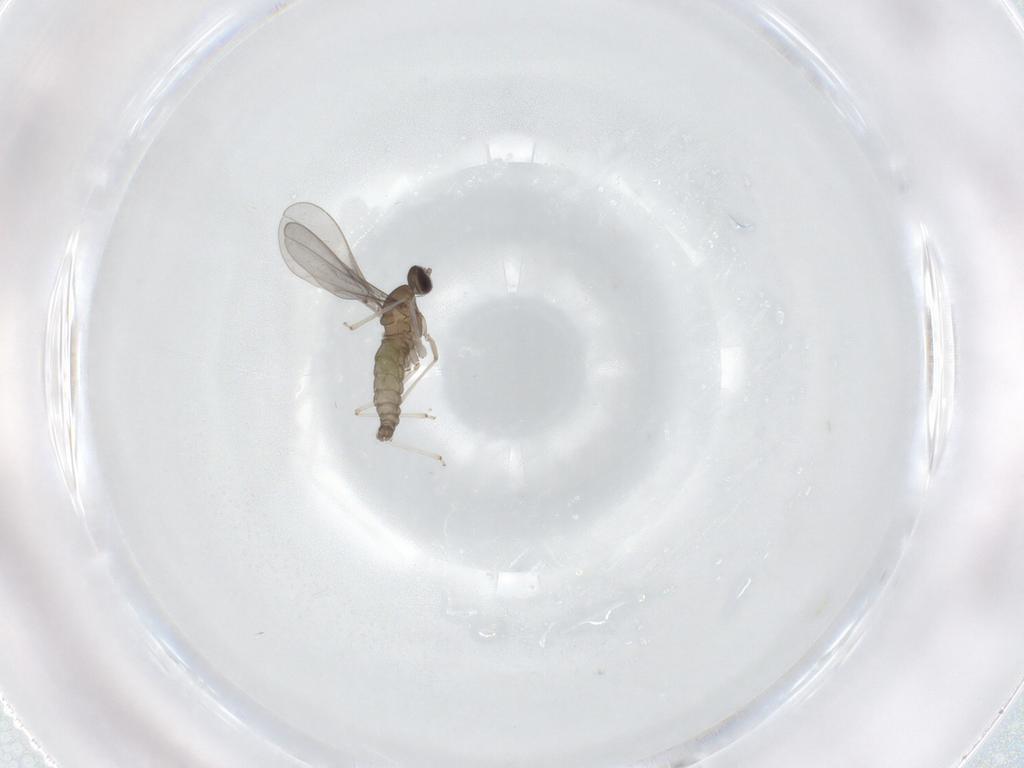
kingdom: Animalia
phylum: Arthropoda
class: Insecta
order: Diptera
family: Cecidomyiidae
